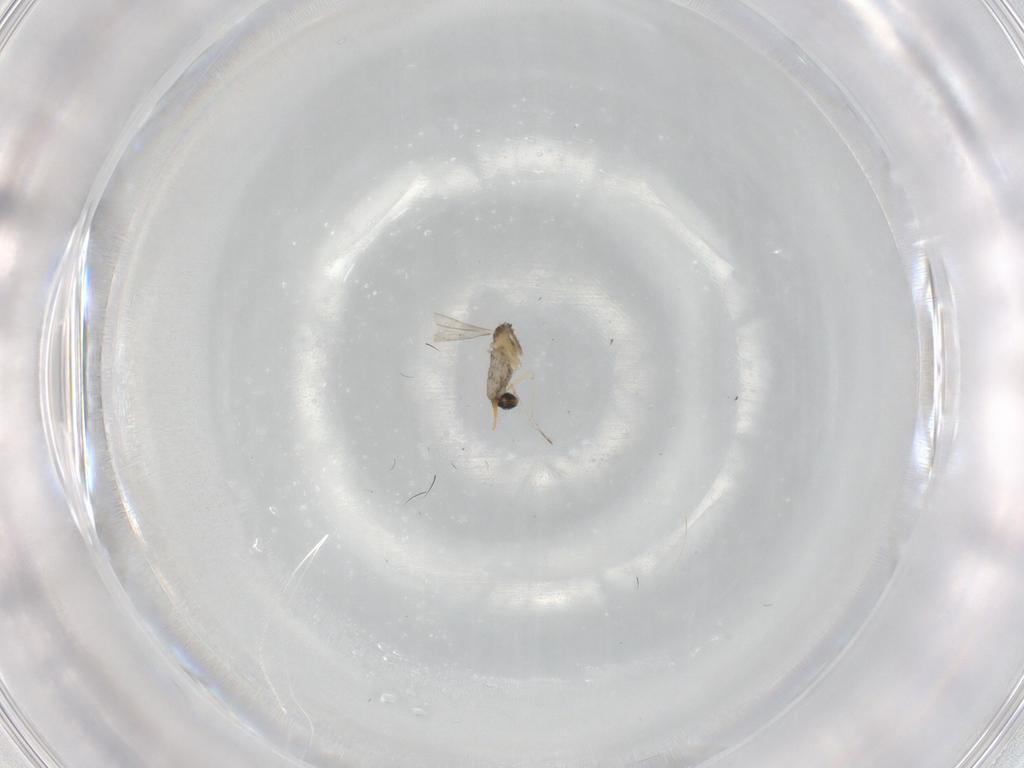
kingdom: Animalia
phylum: Arthropoda
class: Insecta
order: Diptera
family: Cecidomyiidae
